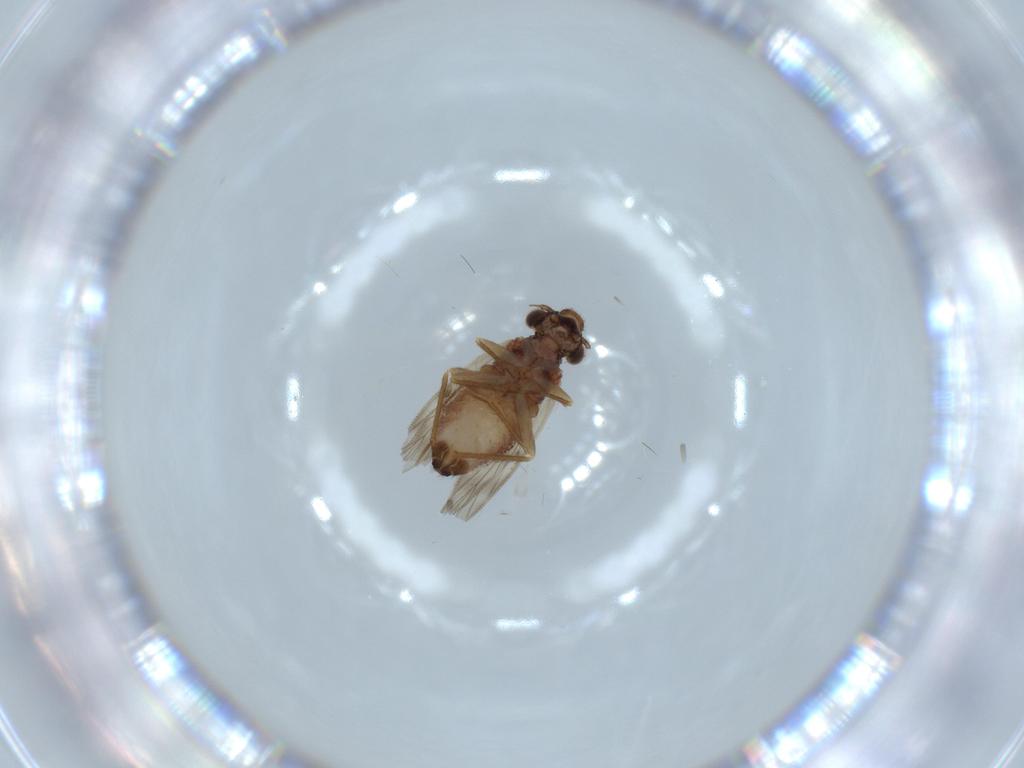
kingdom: Animalia
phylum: Arthropoda
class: Insecta
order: Psocodea
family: Lepidopsocidae
